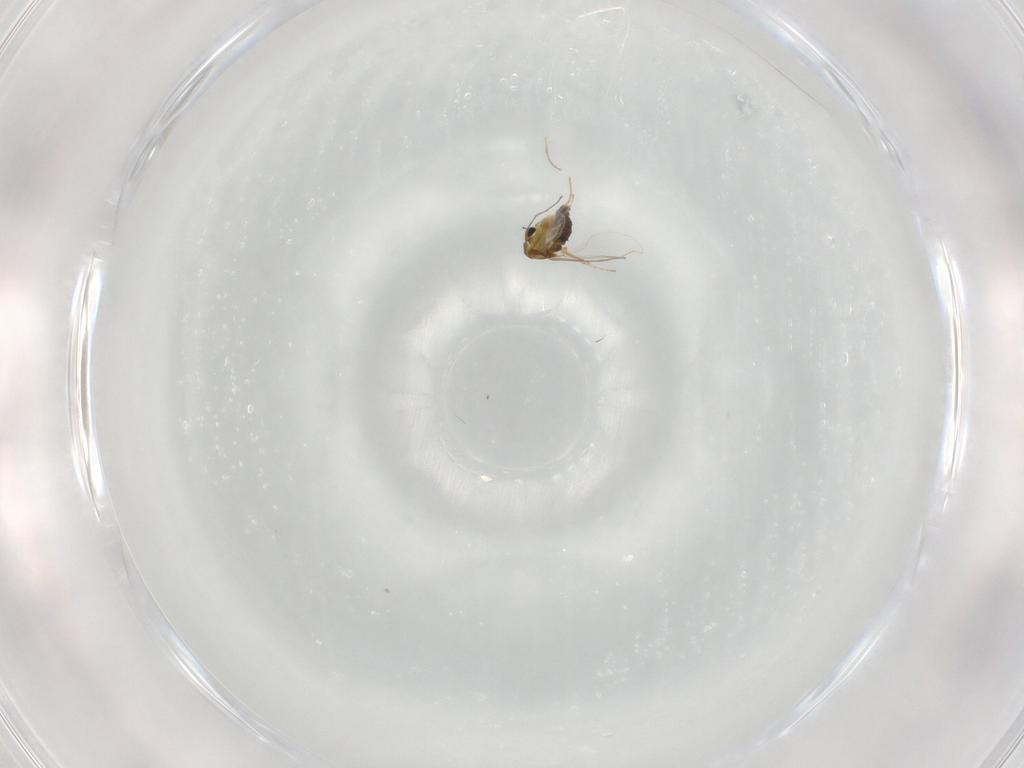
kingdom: Animalia
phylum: Arthropoda
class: Insecta
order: Diptera
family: Chironomidae
